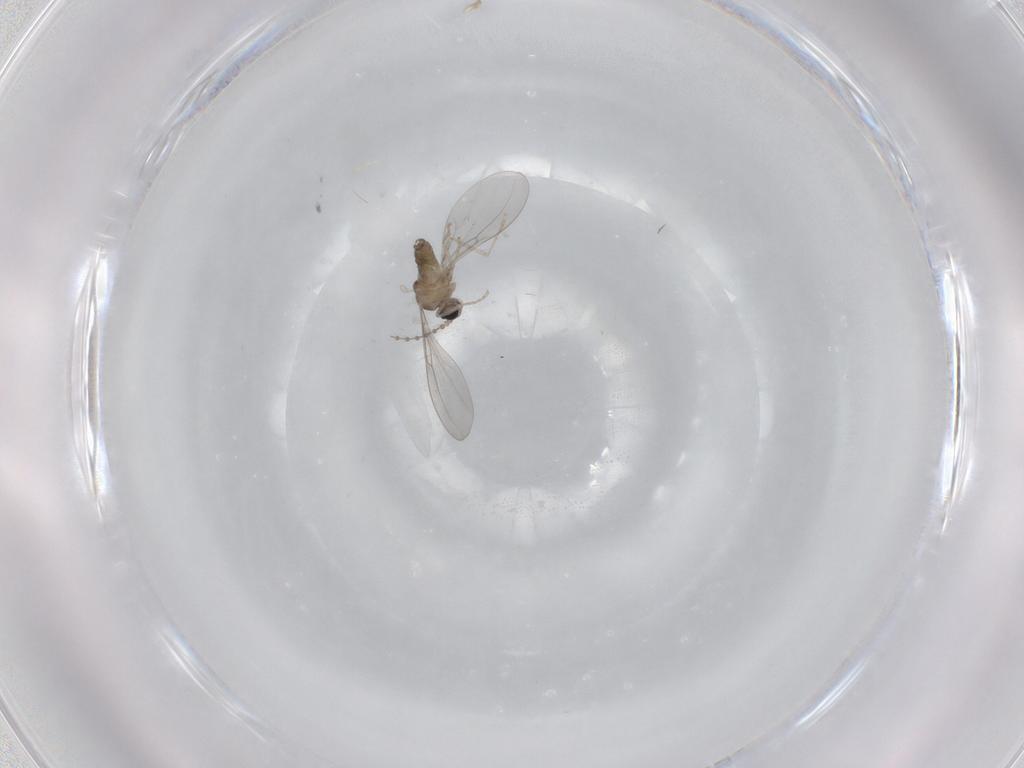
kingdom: Animalia
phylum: Arthropoda
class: Insecta
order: Diptera
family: Cecidomyiidae
